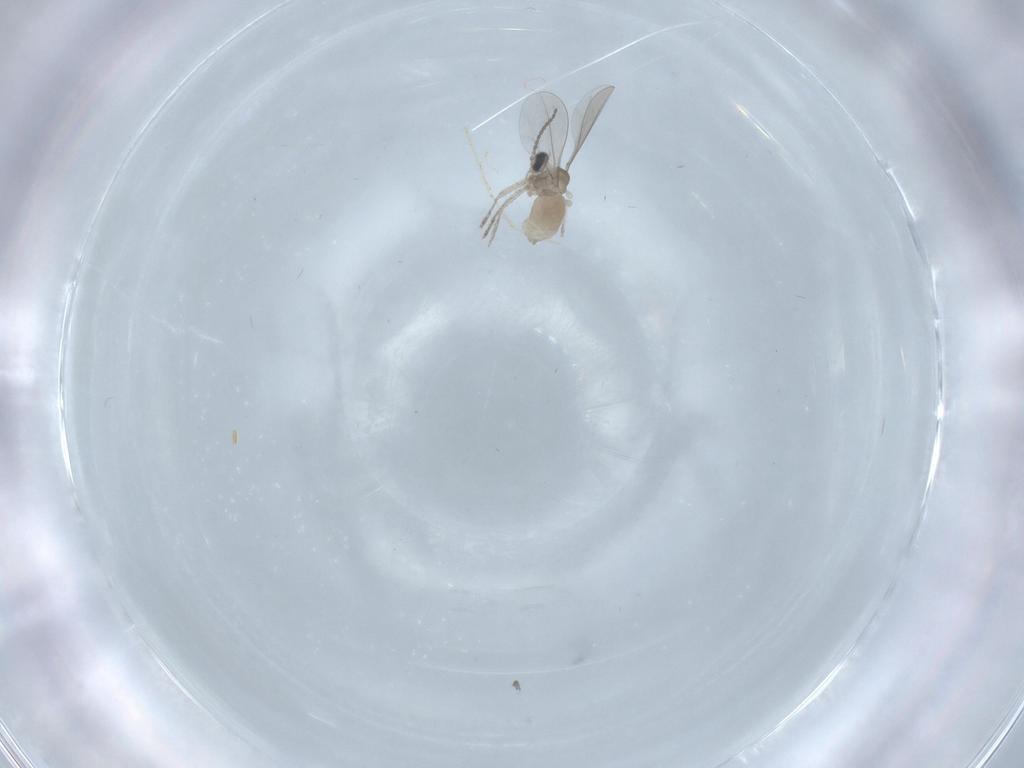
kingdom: Animalia
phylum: Arthropoda
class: Insecta
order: Diptera
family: Cecidomyiidae
